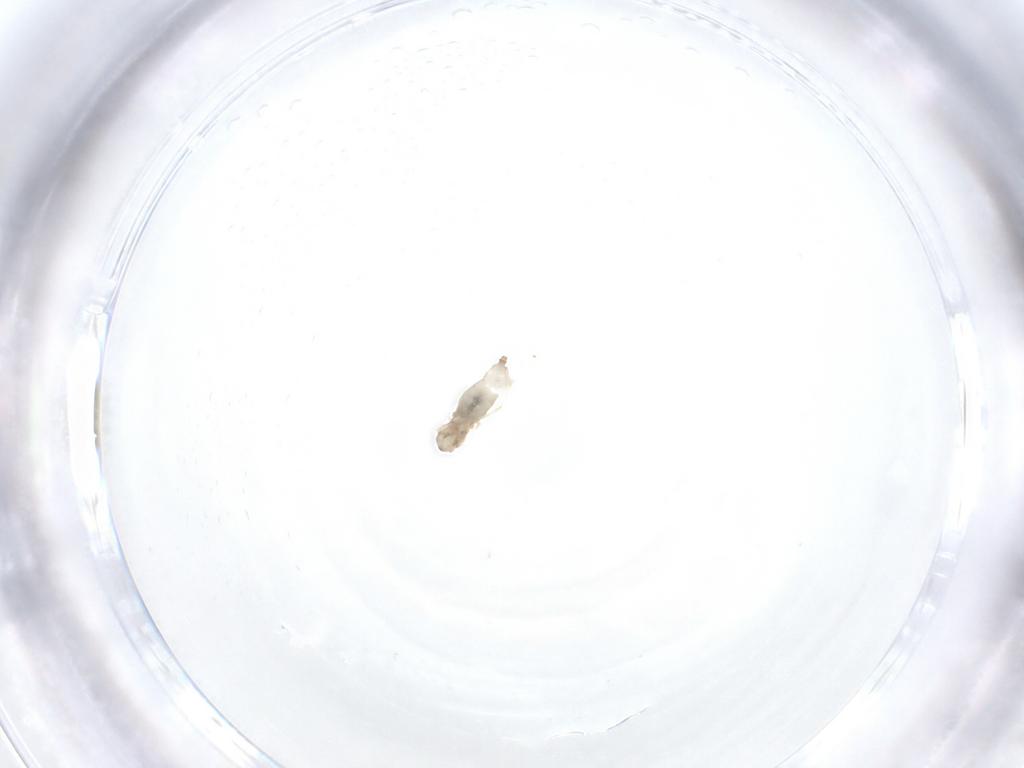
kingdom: Animalia
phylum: Arthropoda
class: Insecta
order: Diptera
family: Cecidomyiidae
